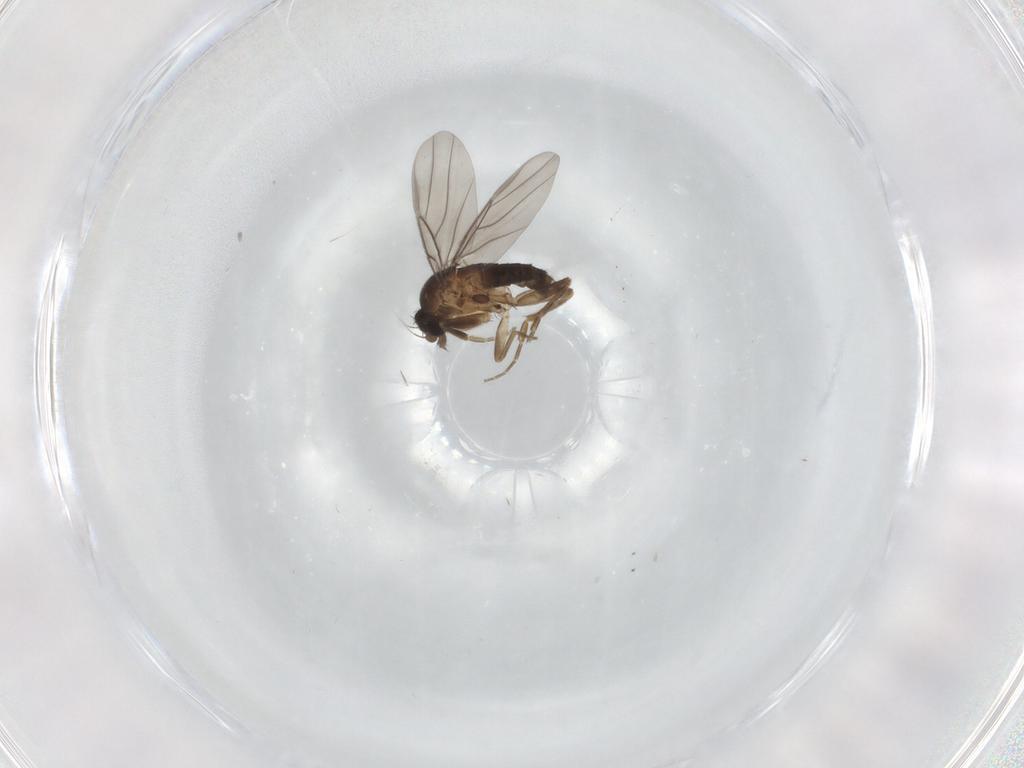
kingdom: Animalia
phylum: Arthropoda
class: Insecta
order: Diptera
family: Phoridae
